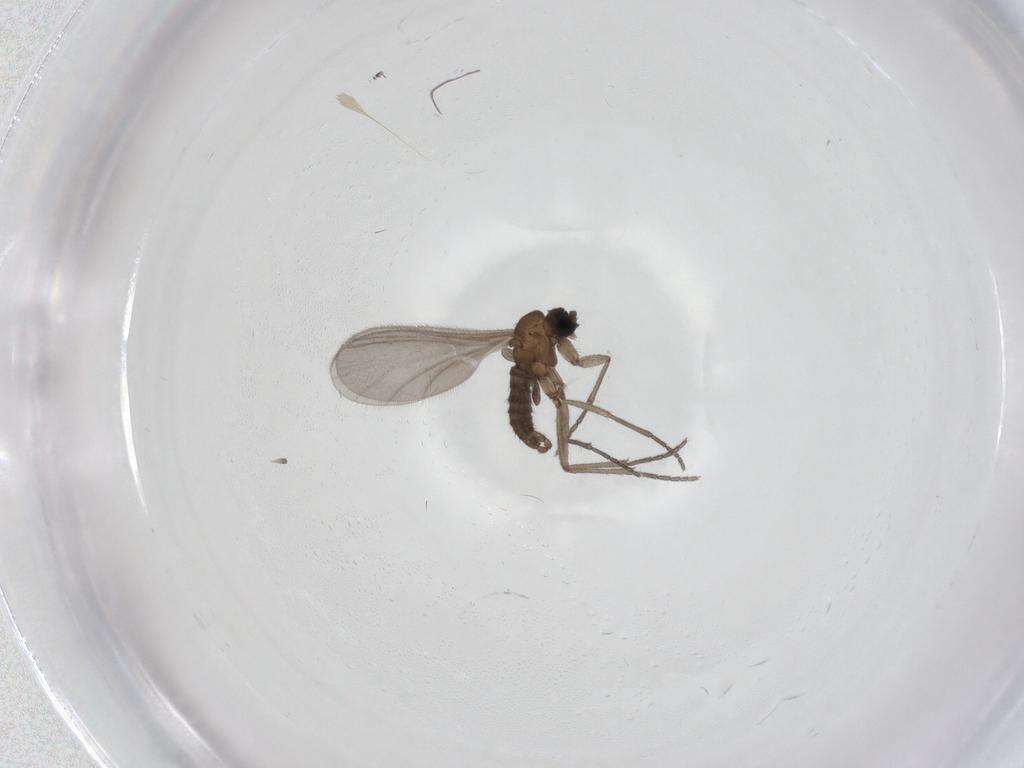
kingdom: Animalia
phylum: Arthropoda
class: Insecta
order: Diptera
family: Sciaridae
